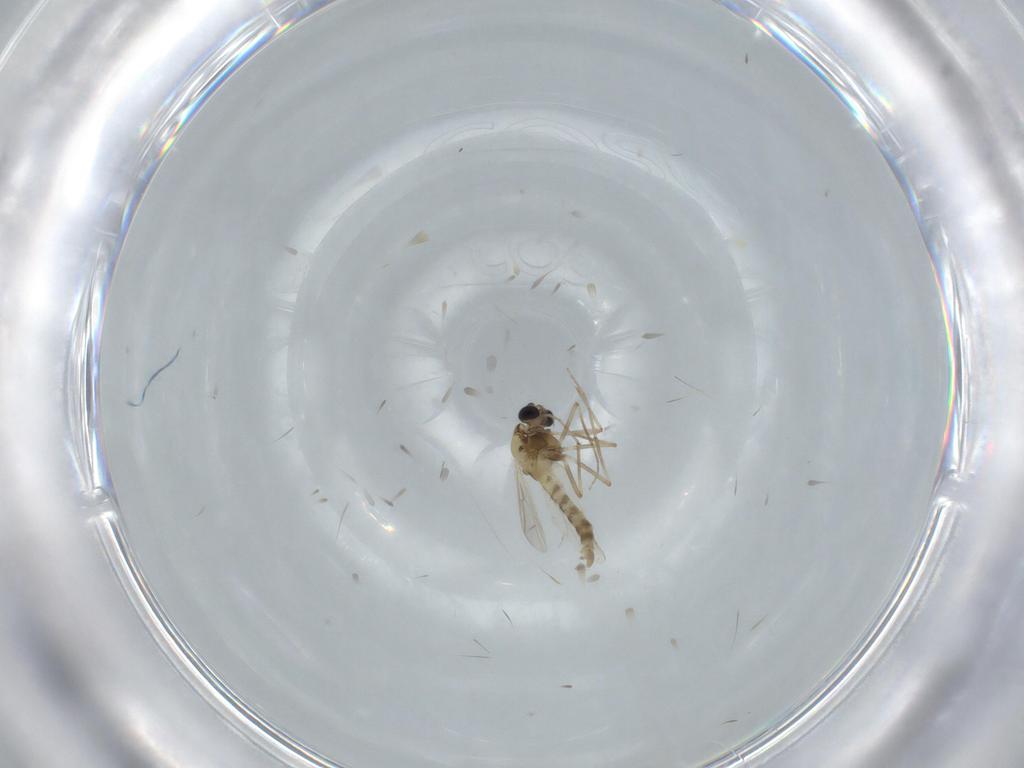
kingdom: Animalia
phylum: Arthropoda
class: Insecta
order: Diptera
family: Chironomidae
